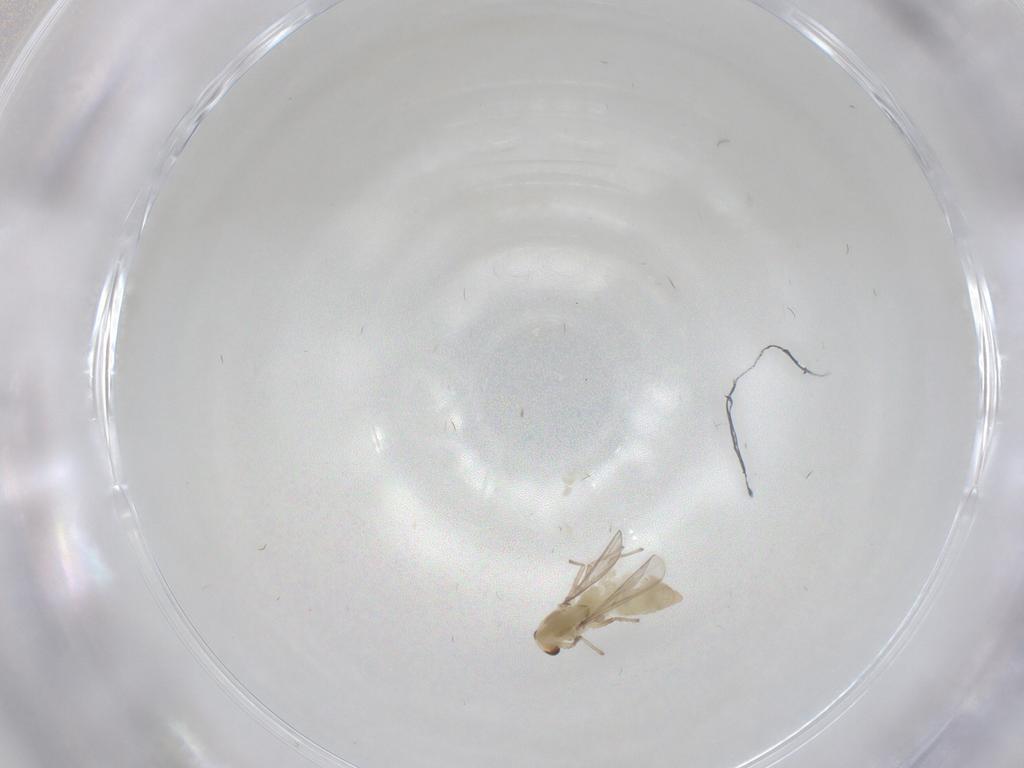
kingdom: Animalia
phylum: Arthropoda
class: Insecta
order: Diptera
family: Chironomidae
